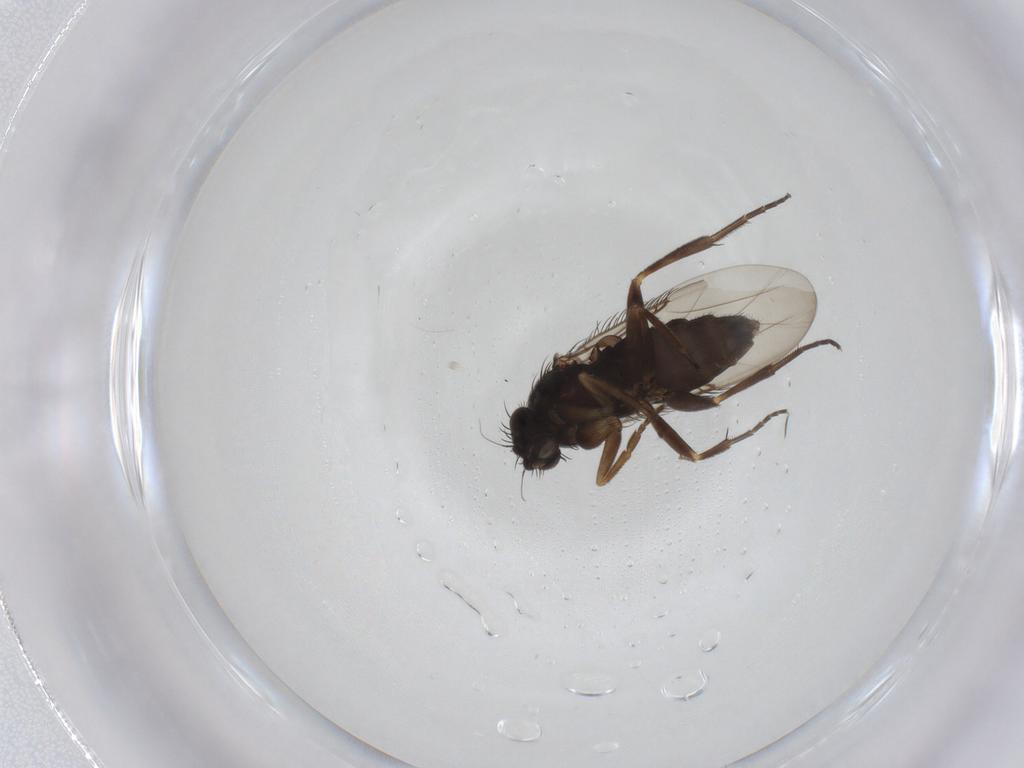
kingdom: Animalia
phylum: Arthropoda
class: Insecta
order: Diptera
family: Phoridae
